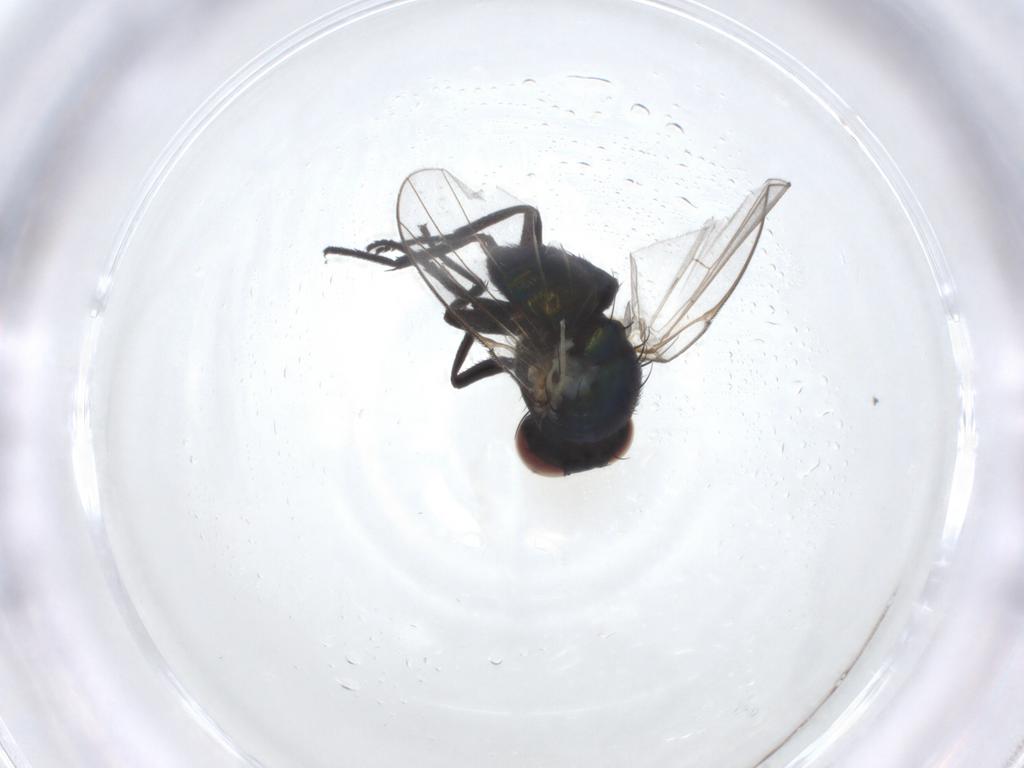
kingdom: Animalia
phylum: Arthropoda
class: Insecta
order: Diptera
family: Agromyzidae
